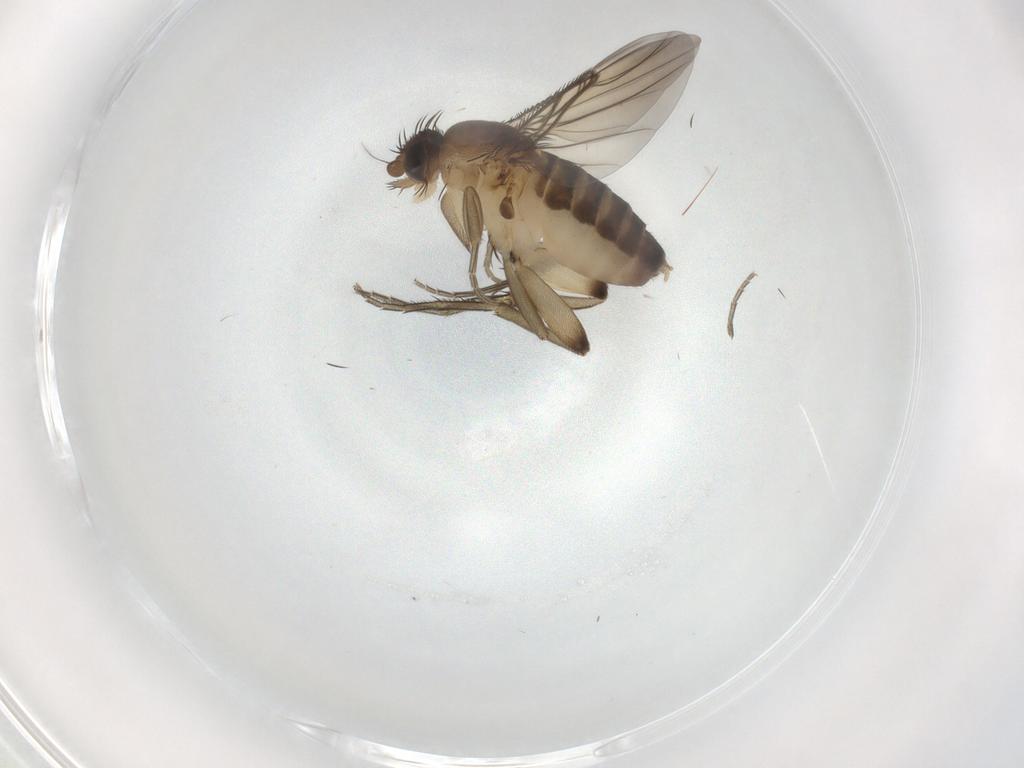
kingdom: Animalia
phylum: Arthropoda
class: Insecta
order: Diptera
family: Phoridae
